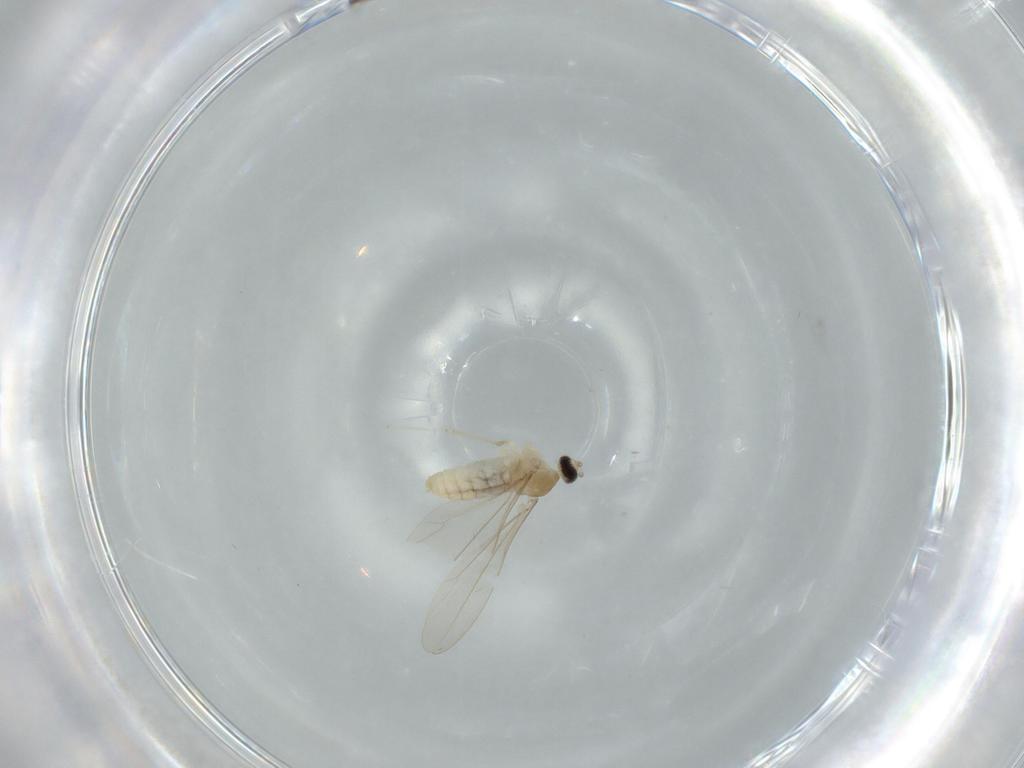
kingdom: Animalia
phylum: Arthropoda
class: Insecta
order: Diptera
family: Cecidomyiidae
